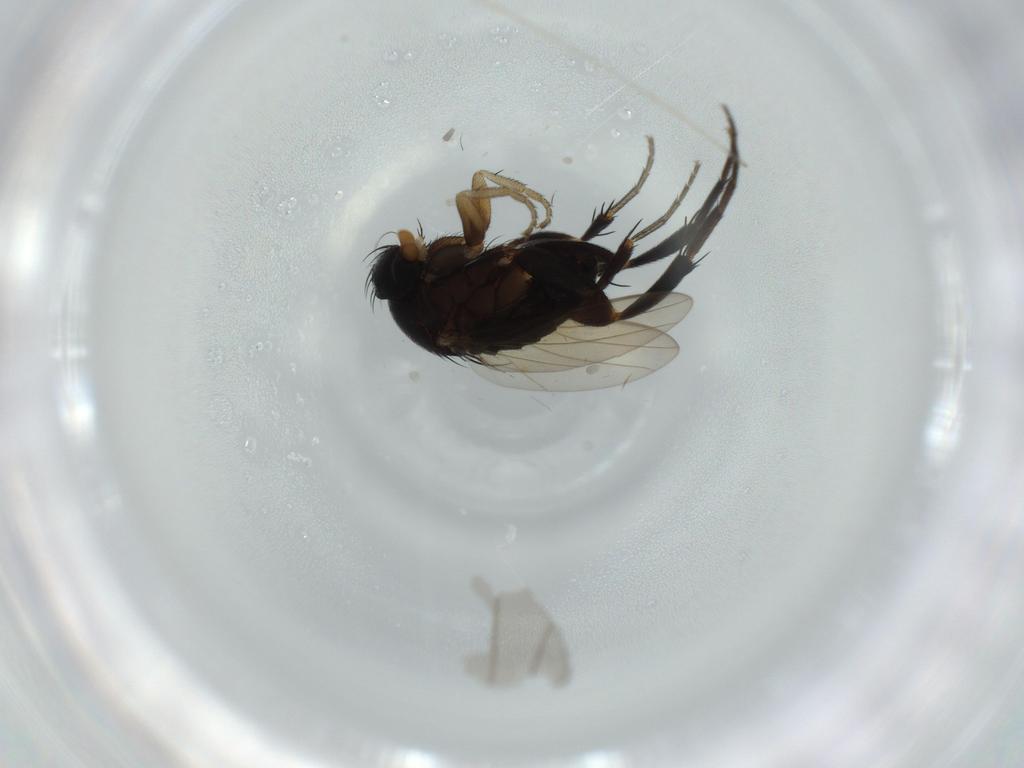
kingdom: Animalia
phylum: Arthropoda
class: Insecta
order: Diptera
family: Phoridae
